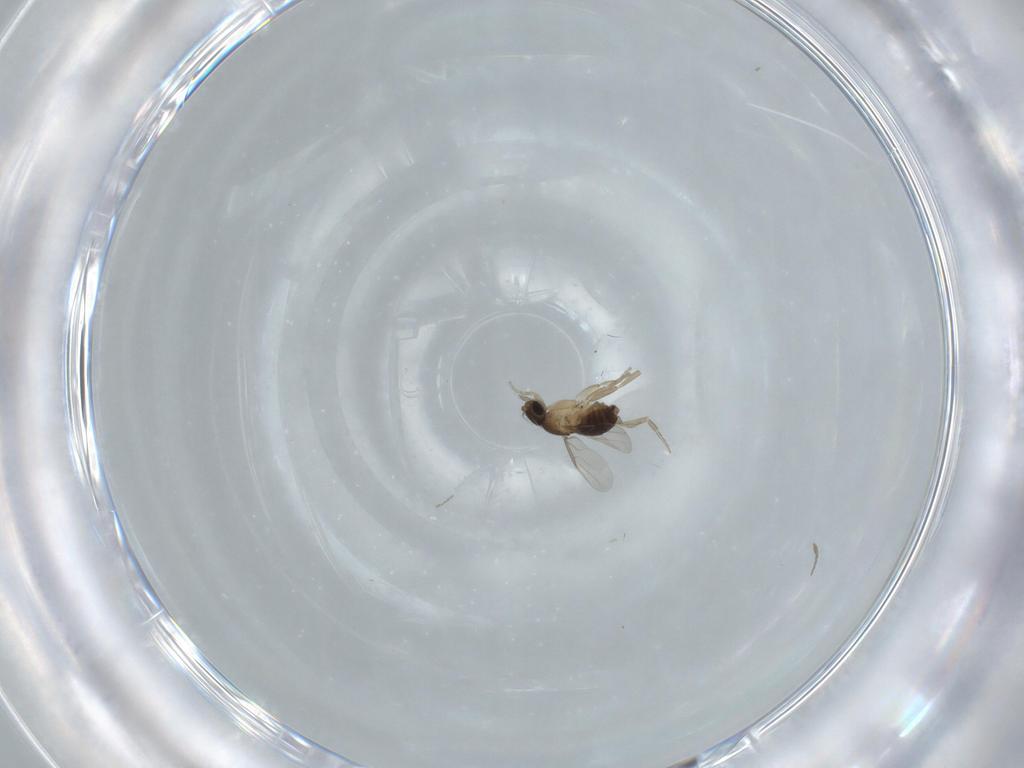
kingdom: Animalia
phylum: Arthropoda
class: Insecta
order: Diptera
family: Phoridae
